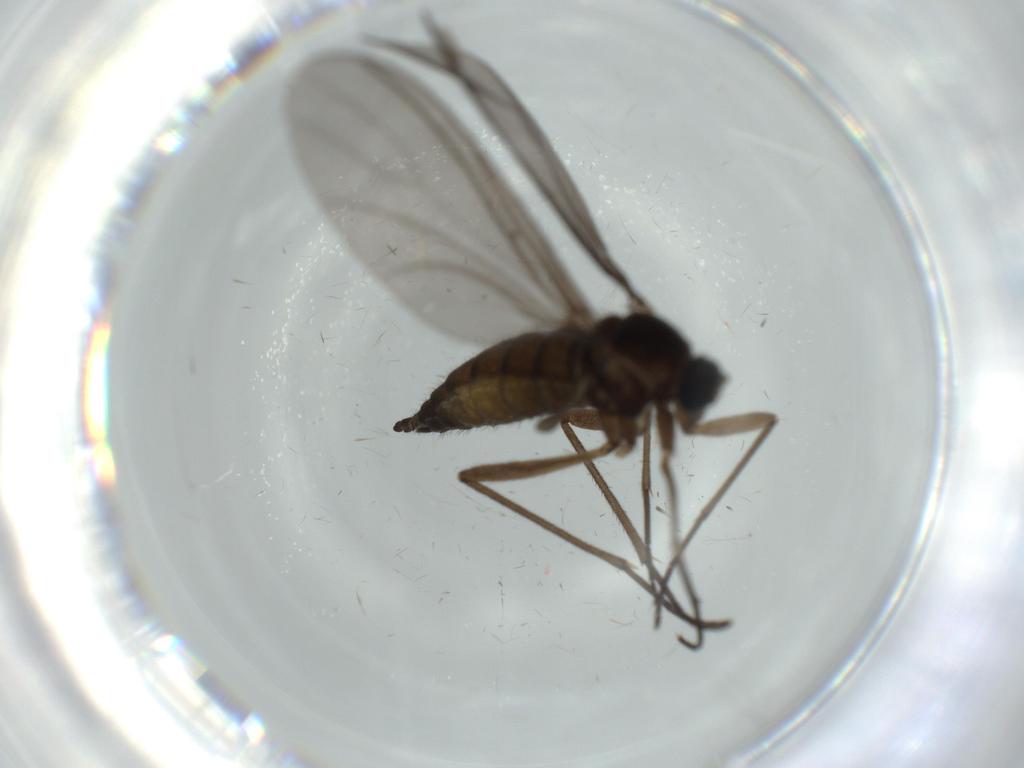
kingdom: Animalia
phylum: Arthropoda
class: Insecta
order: Diptera
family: Sciaridae
